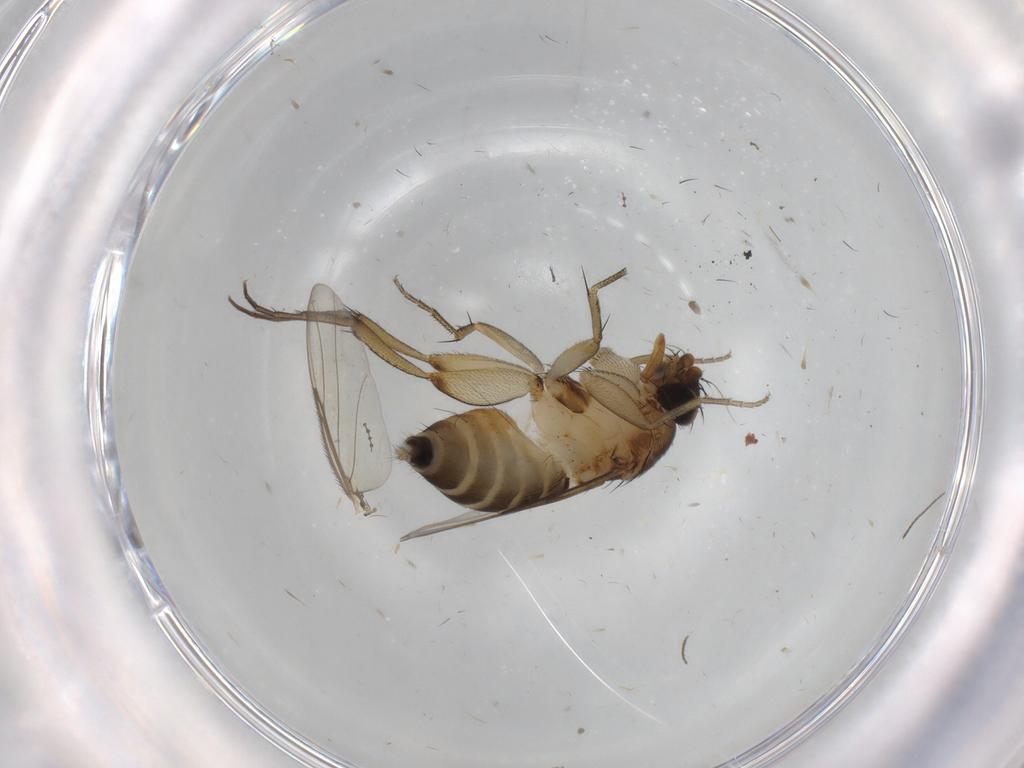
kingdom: Animalia
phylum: Arthropoda
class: Insecta
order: Diptera
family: Phoridae
